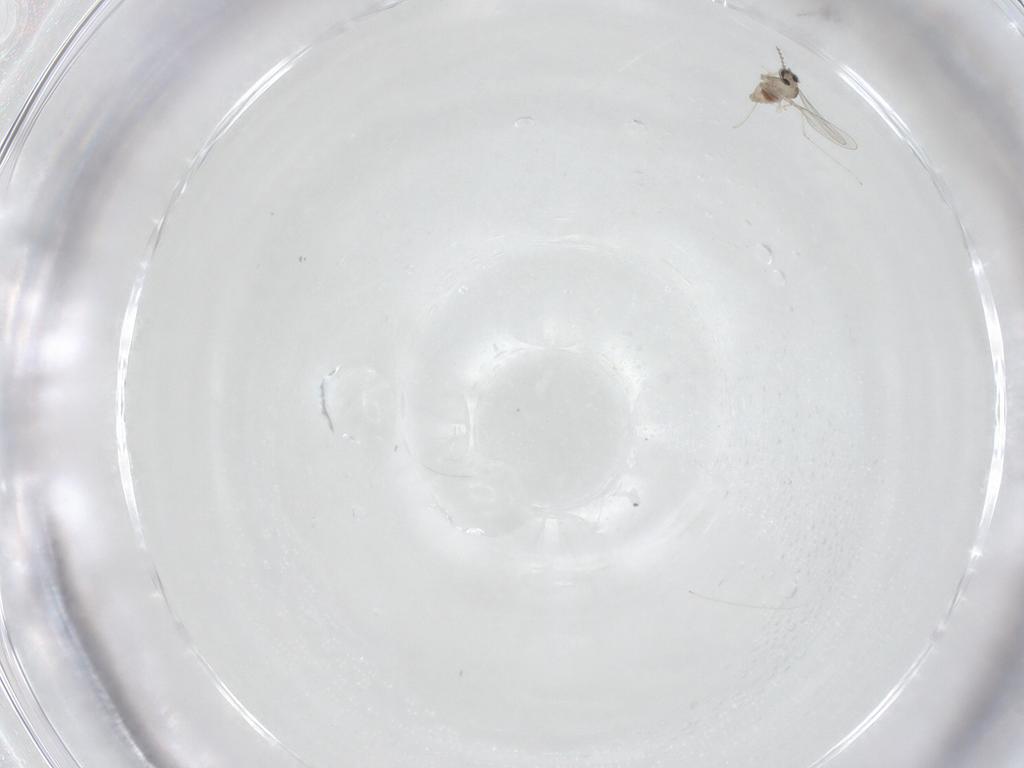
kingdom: Animalia
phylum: Arthropoda
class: Insecta
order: Diptera
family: Cecidomyiidae
